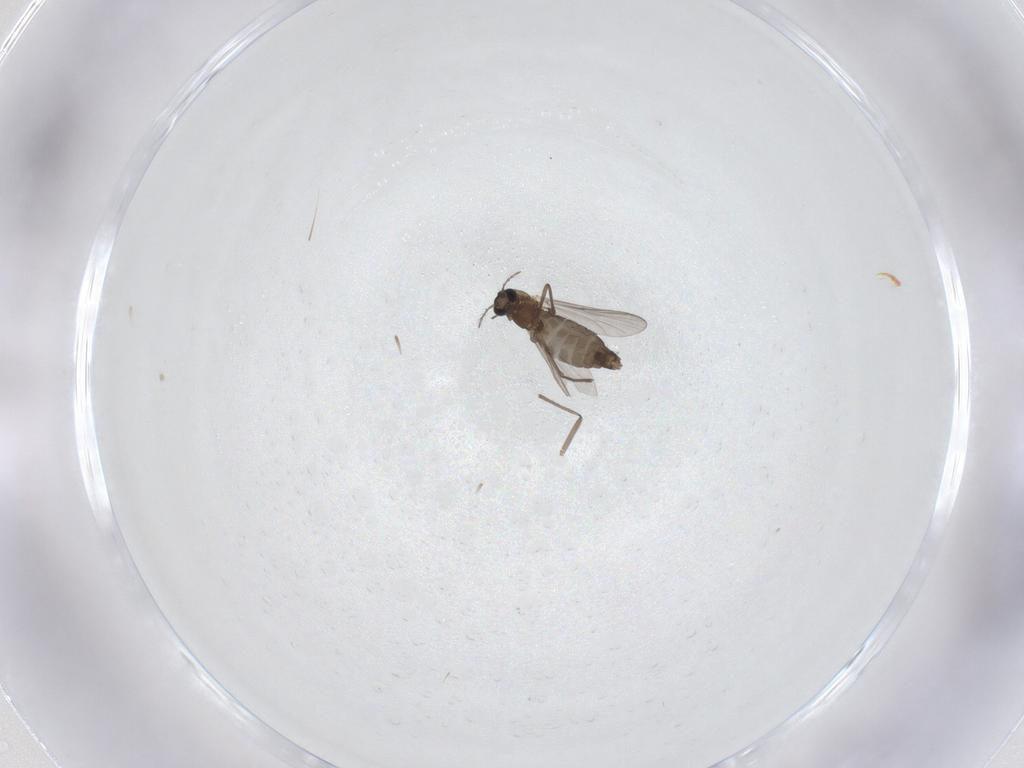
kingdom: Animalia
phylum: Arthropoda
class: Insecta
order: Diptera
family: Chironomidae
